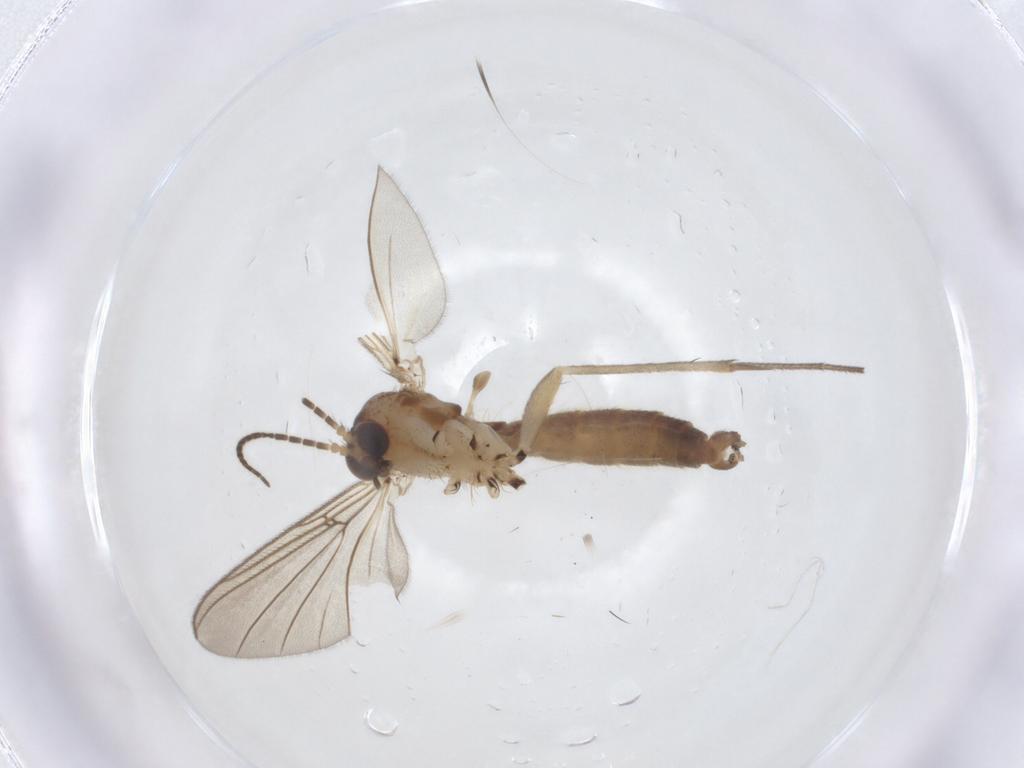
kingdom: Animalia
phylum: Arthropoda
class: Insecta
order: Diptera
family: Mycetophilidae
